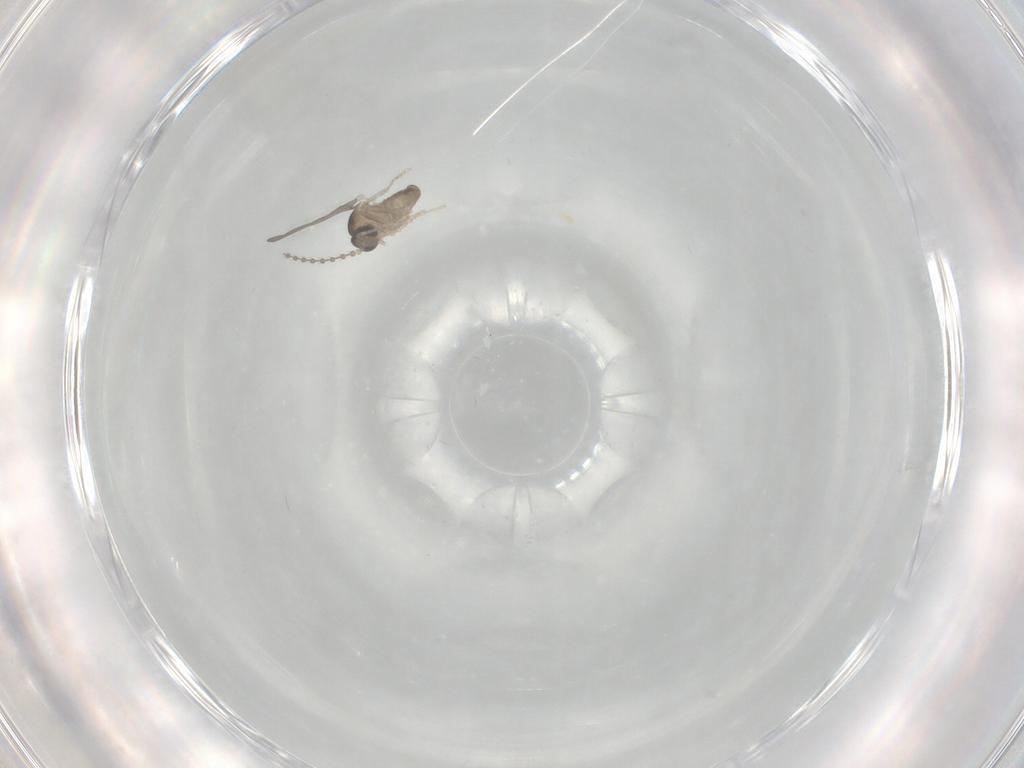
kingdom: Animalia
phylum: Arthropoda
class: Insecta
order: Diptera
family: Cecidomyiidae
